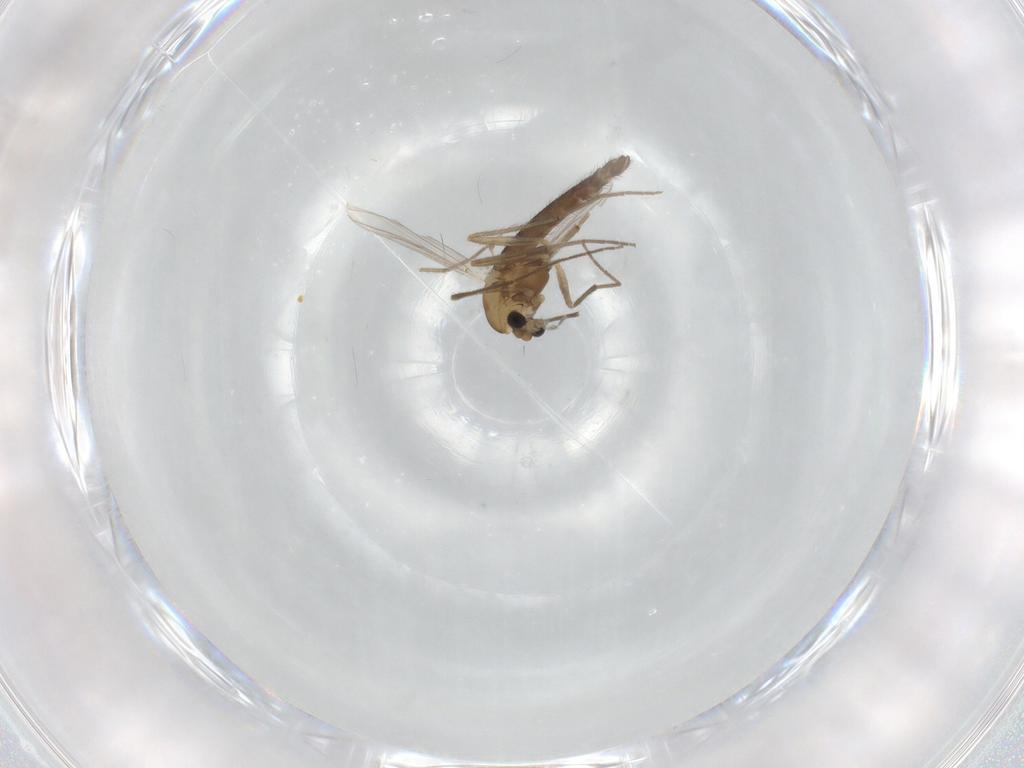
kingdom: Animalia
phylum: Arthropoda
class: Insecta
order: Diptera
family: Chironomidae
